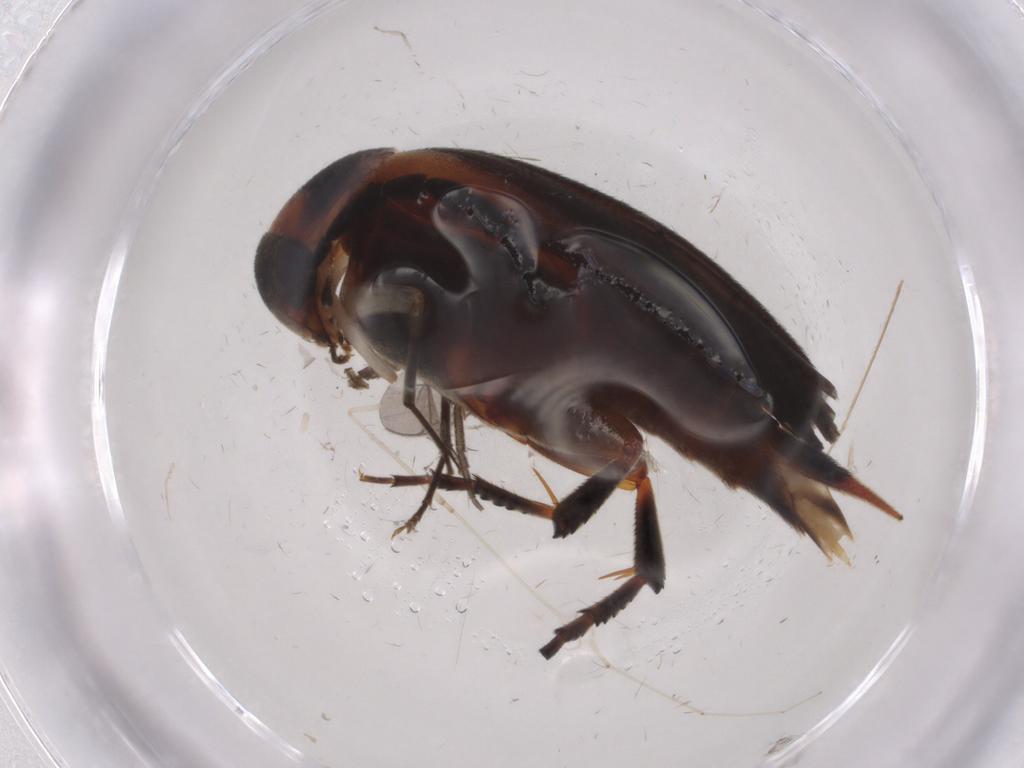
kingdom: Animalia
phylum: Arthropoda
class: Insecta
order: Coleoptera
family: Mordellidae
